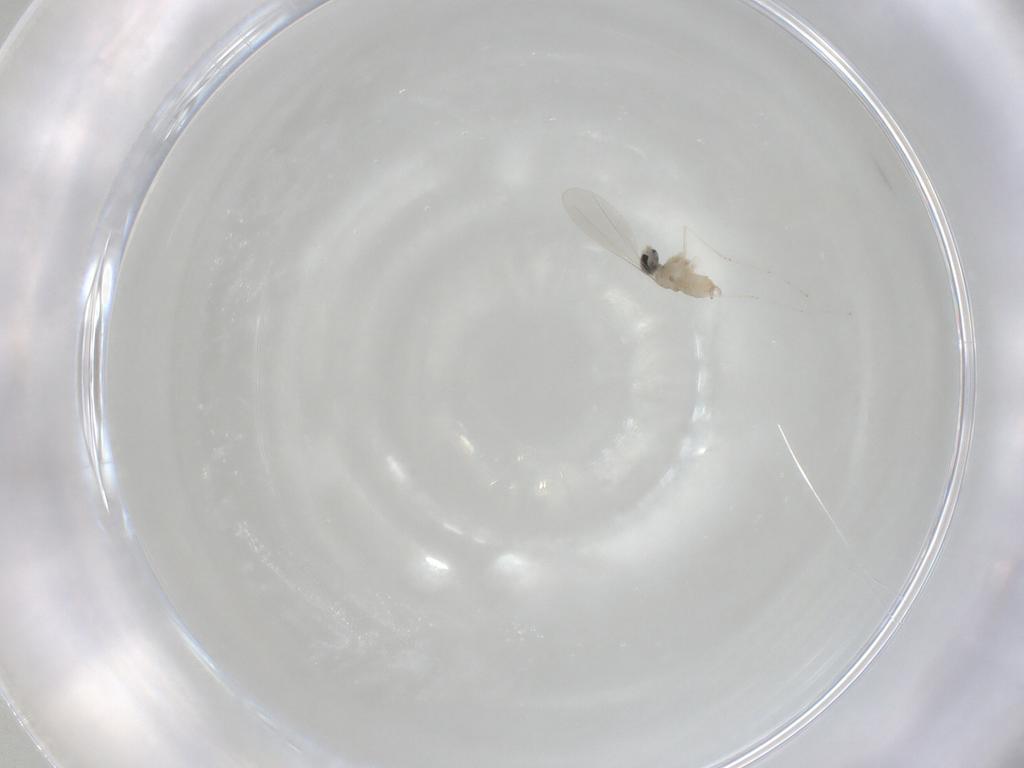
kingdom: Animalia
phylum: Arthropoda
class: Insecta
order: Diptera
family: Cecidomyiidae
